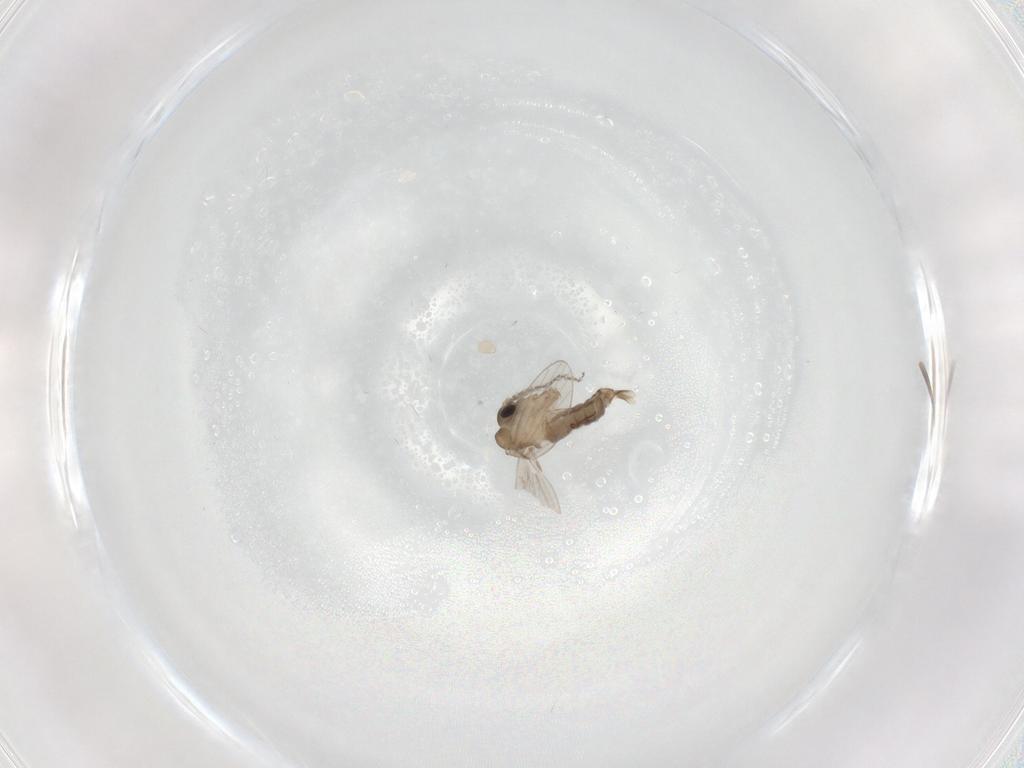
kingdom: Animalia
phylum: Arthropoda
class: Insecta
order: Diptera
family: Psychodidae
